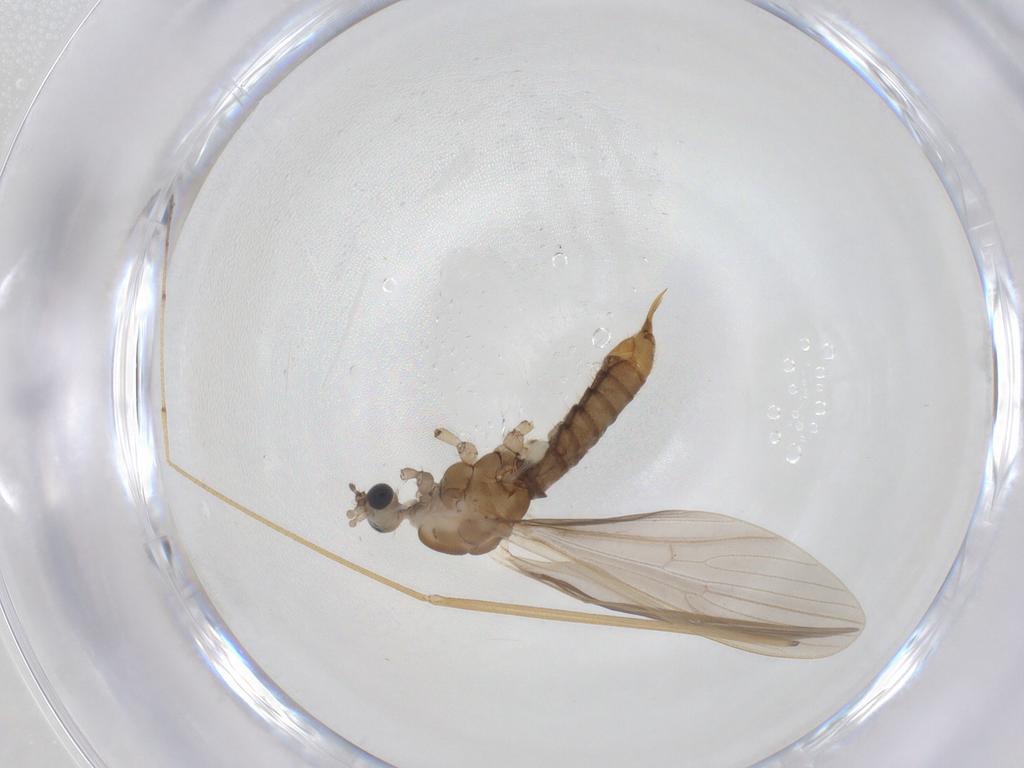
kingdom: Animalia
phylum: Arthropoda
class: Insecta
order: Diptera
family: Limoniidae
